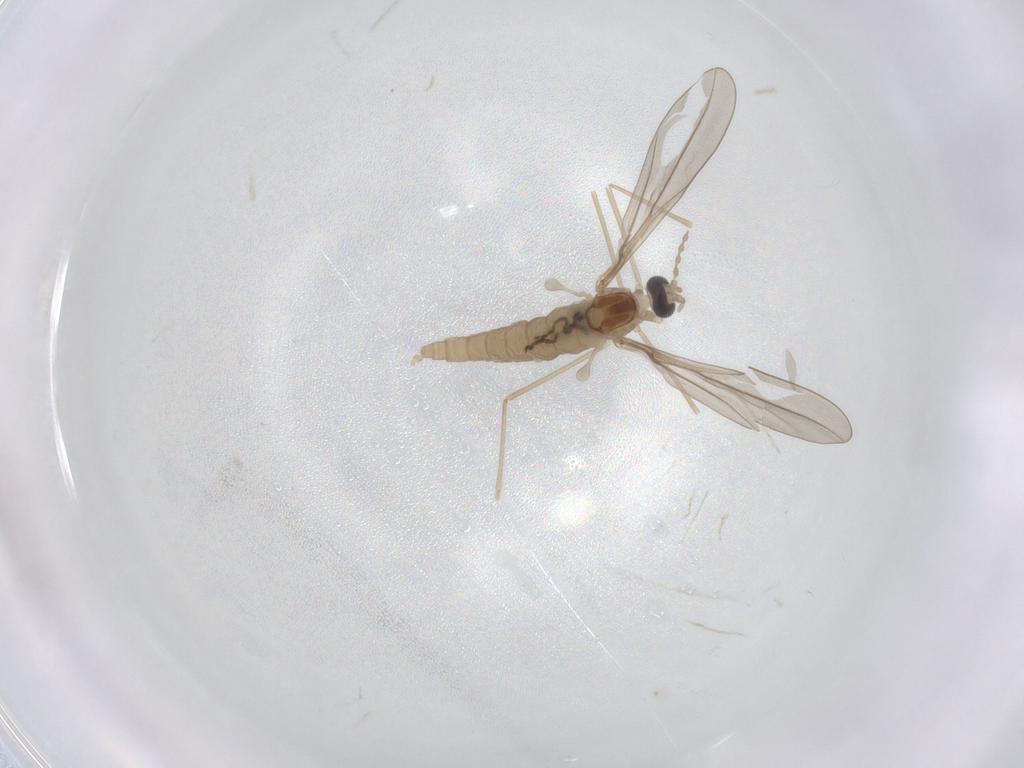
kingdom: Animalia
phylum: Arthropoda
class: Insecta
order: Diptera
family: Cecidomyiidae
